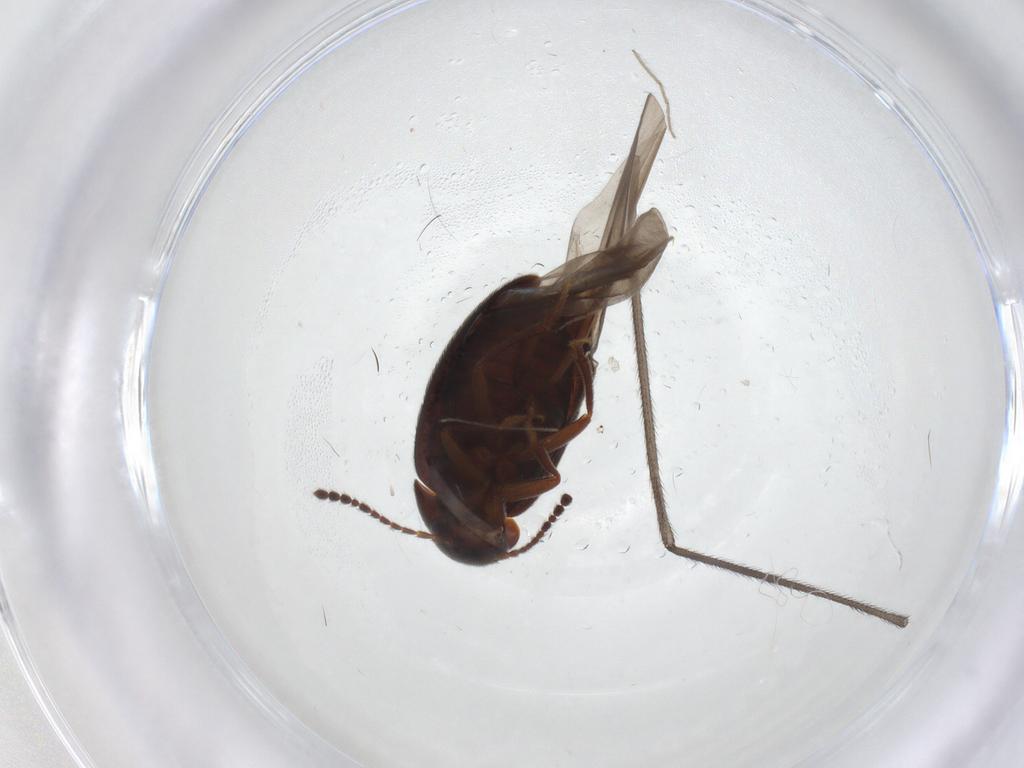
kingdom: Animalia
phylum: Arthropoda
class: Insecta
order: Coleoptera
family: Leiodidae
